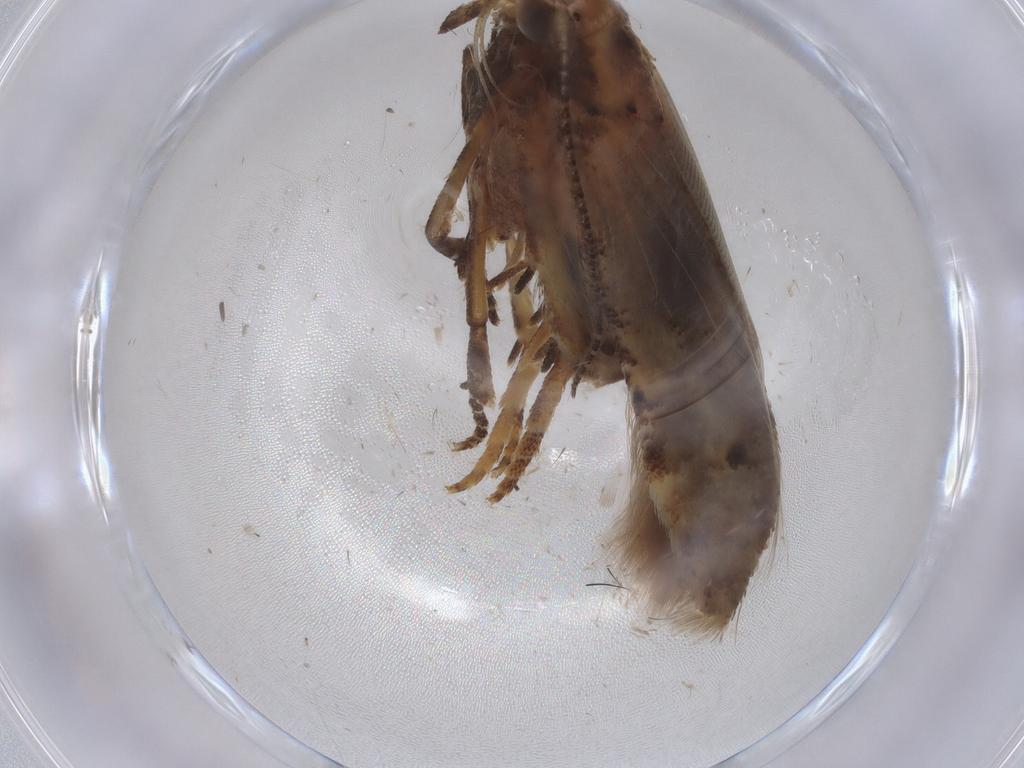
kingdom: Animalia
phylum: Arthropoda
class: Insecta
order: Lepidoptera
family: Gelechiidae
